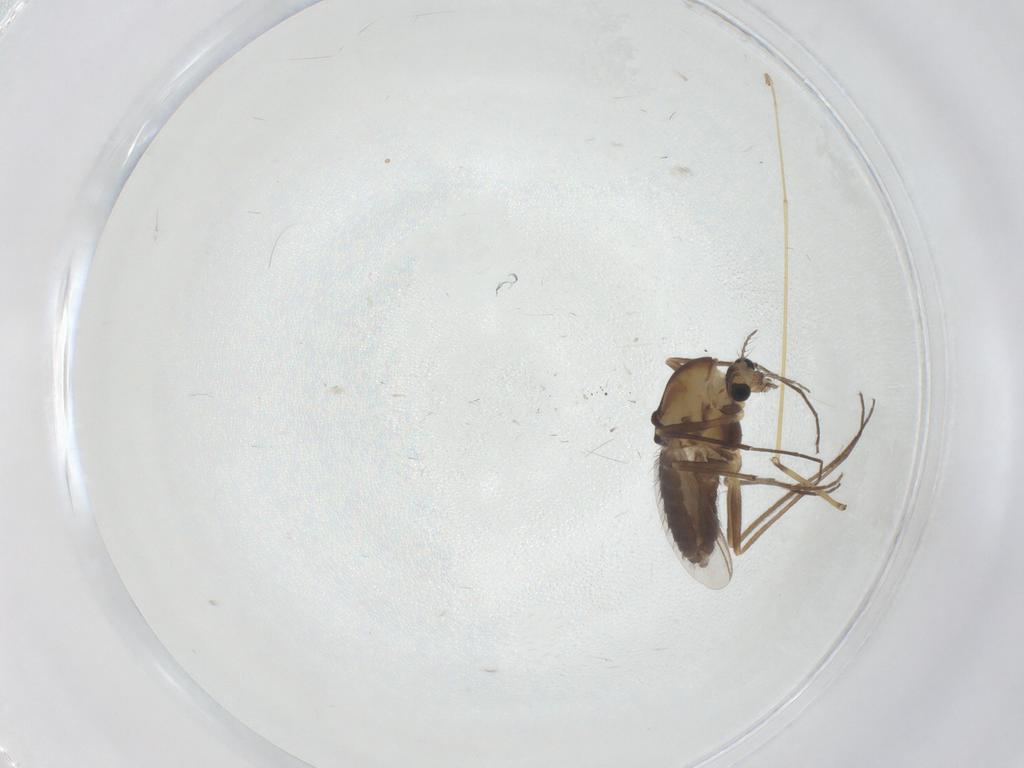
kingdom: Animalia
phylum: Arthropoda
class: Insecta
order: Diptera
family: Chironomidae
